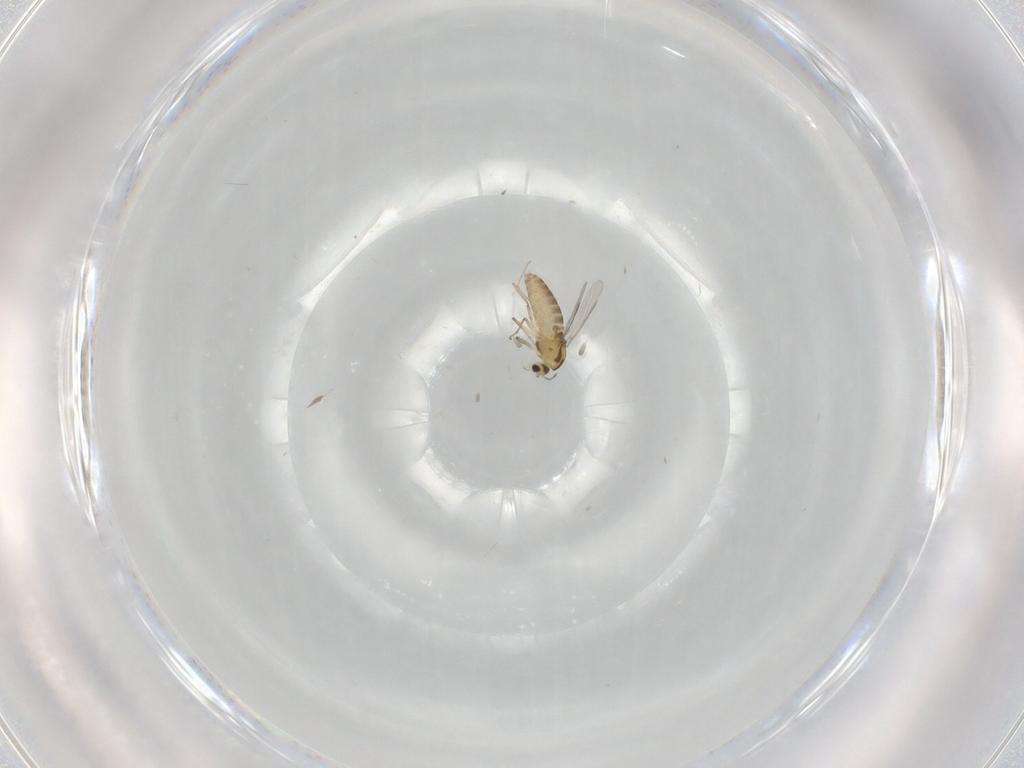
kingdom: Animalia
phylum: Arthropoda
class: Insecta
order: Diptera
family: Chironomidae
